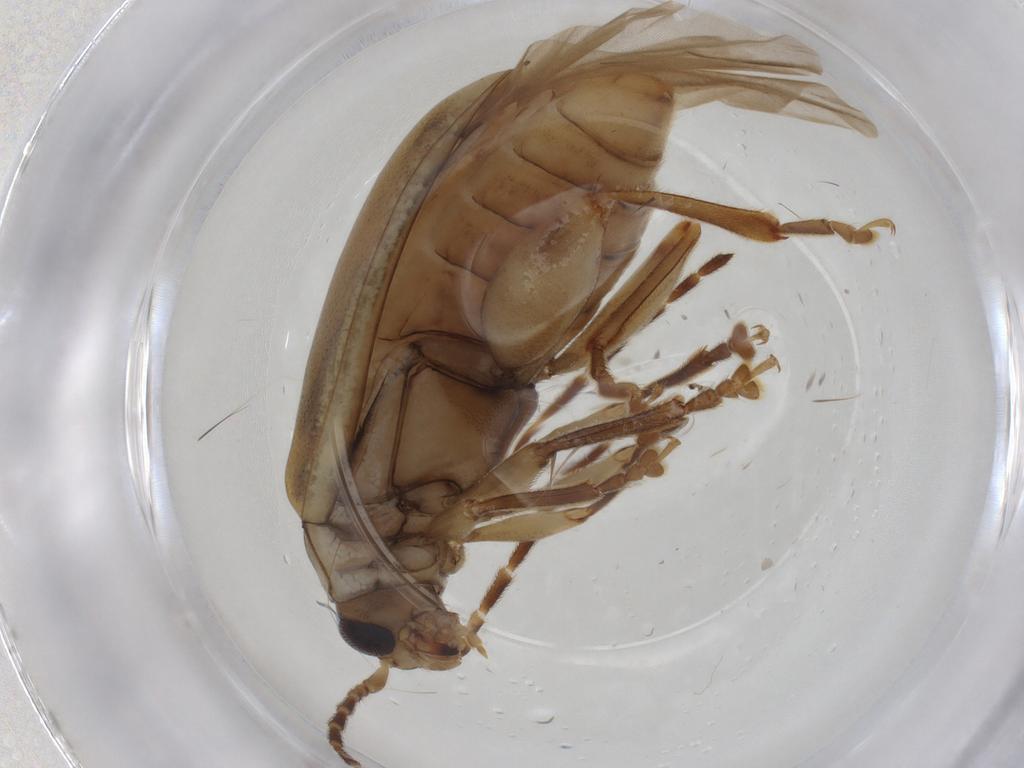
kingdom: Animalia
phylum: Arthropoda
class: Insecta
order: Coleoptera
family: Chrysomelidae
